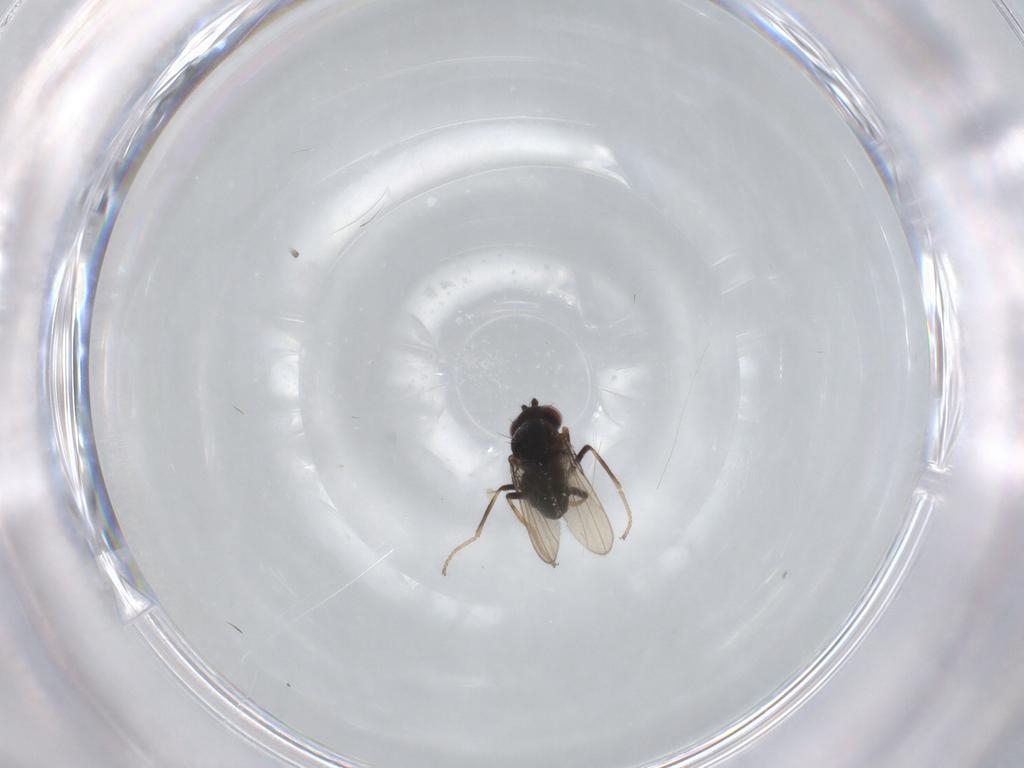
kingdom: Animalia
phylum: Arthropoda
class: Insecta
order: Diptera
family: Ephydridae
